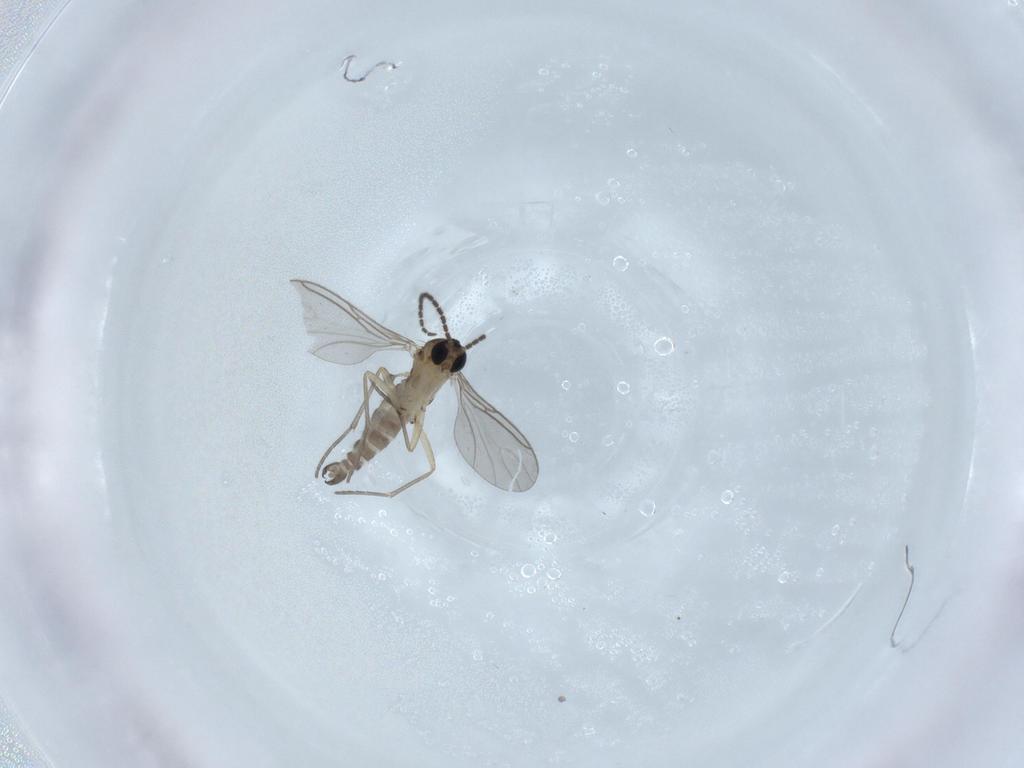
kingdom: Animalia
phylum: Arthropoda
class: Insecta
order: Diptera
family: Sciaridae
